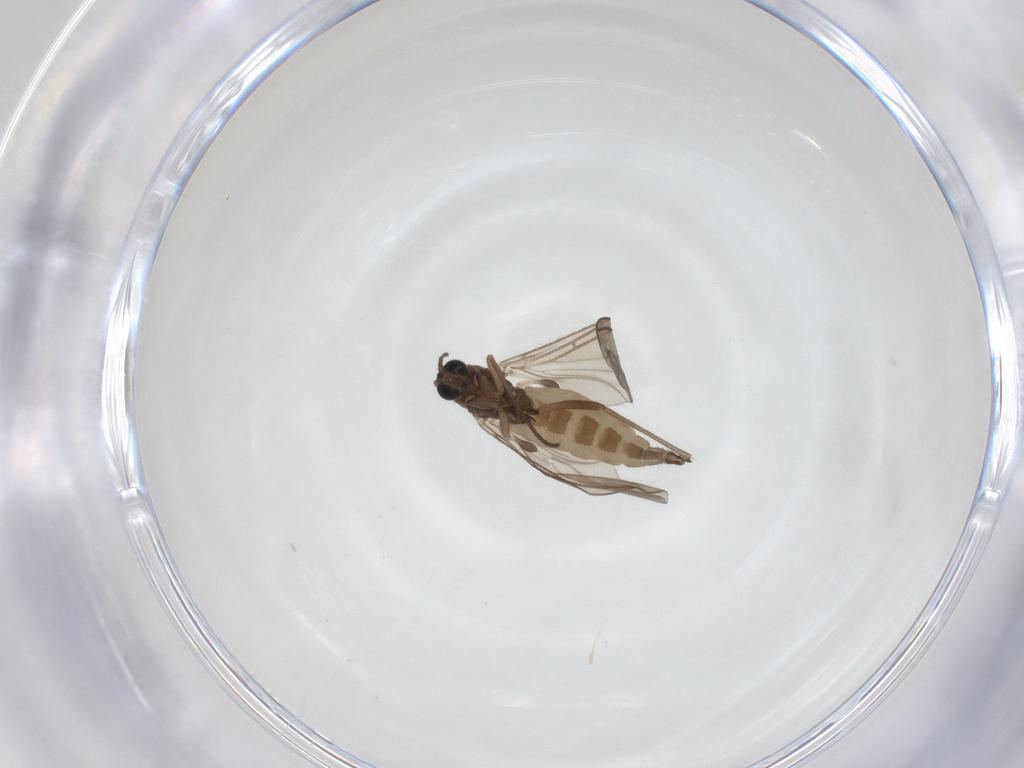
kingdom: Animalia
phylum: Arthropoda
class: Insecta
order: Diptera
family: Sciaridae
